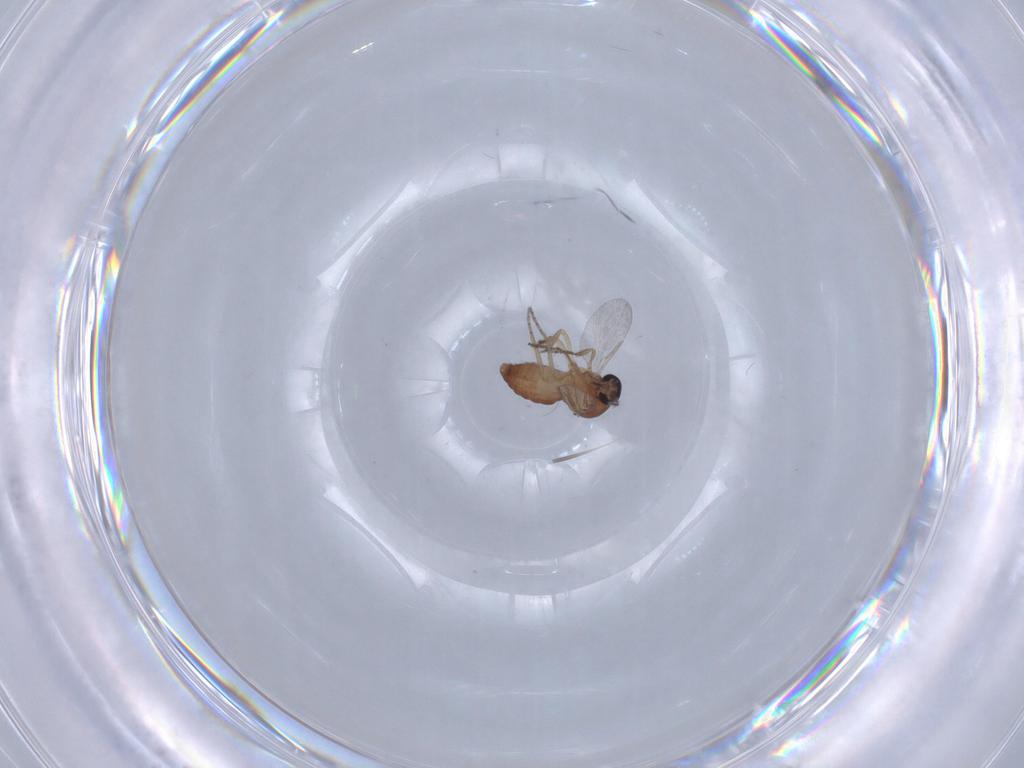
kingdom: Animalia
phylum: Arthropoda
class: Insecta
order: Diptera
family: Ceratopogonidae
